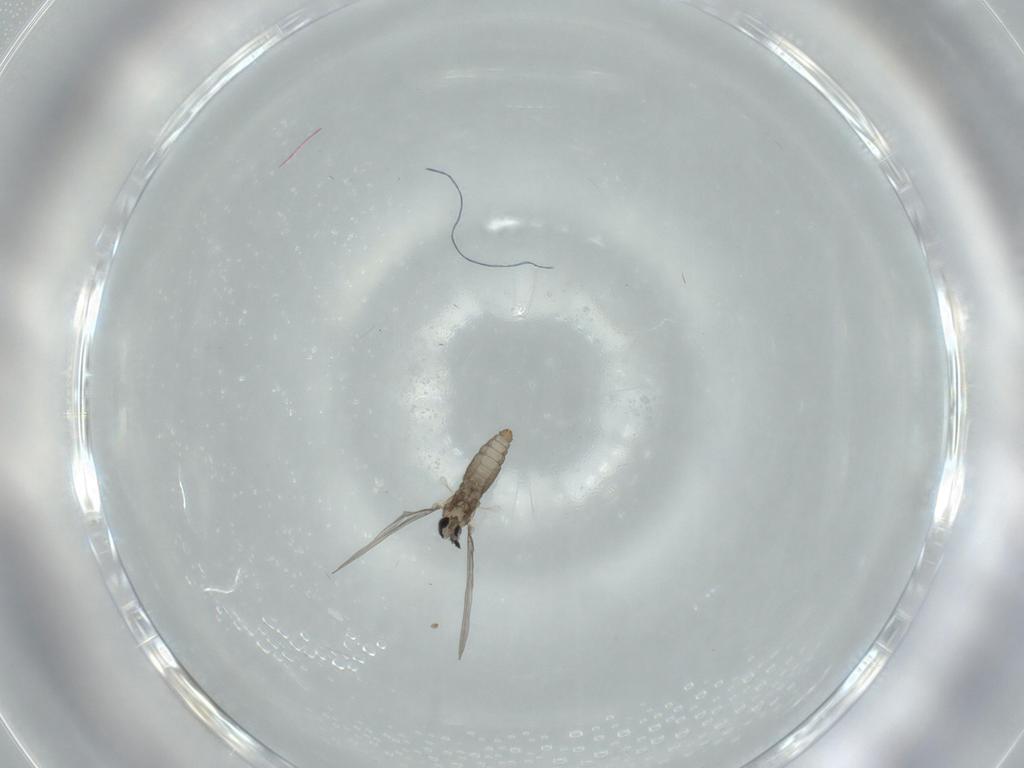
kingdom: Animalia
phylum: Arthropoda
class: Insecta
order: Diptera
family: Cecidomyiidae
